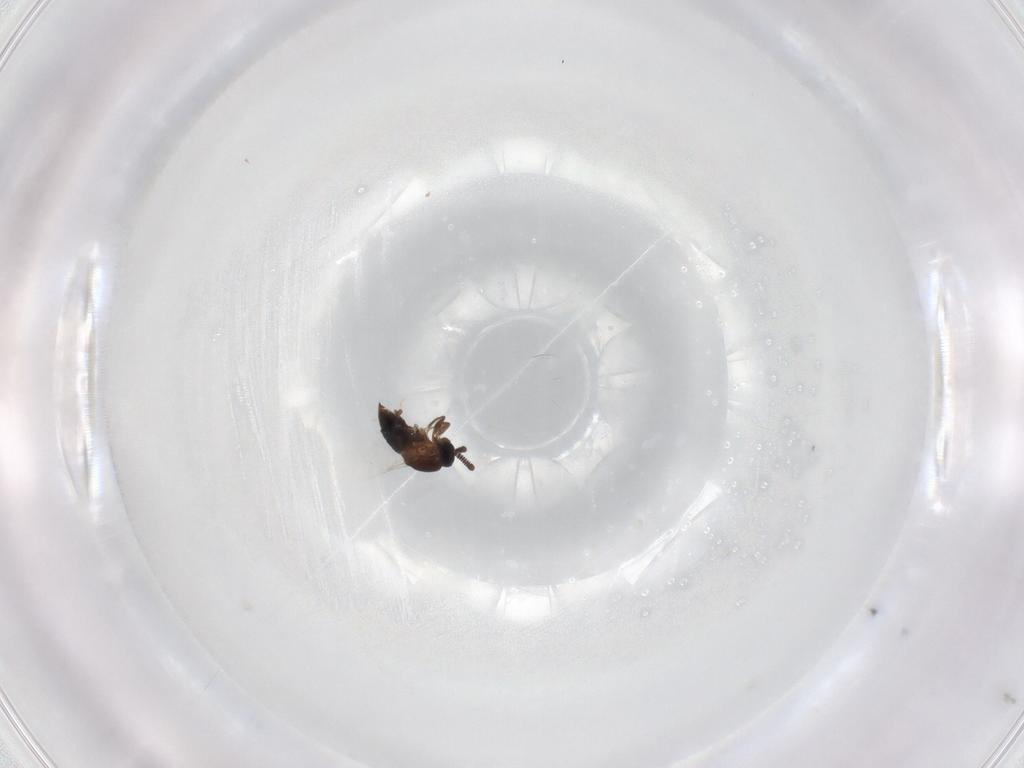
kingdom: Animalia
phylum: Arthropoda
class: Insecta
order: Diptera
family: Scatopsidae
